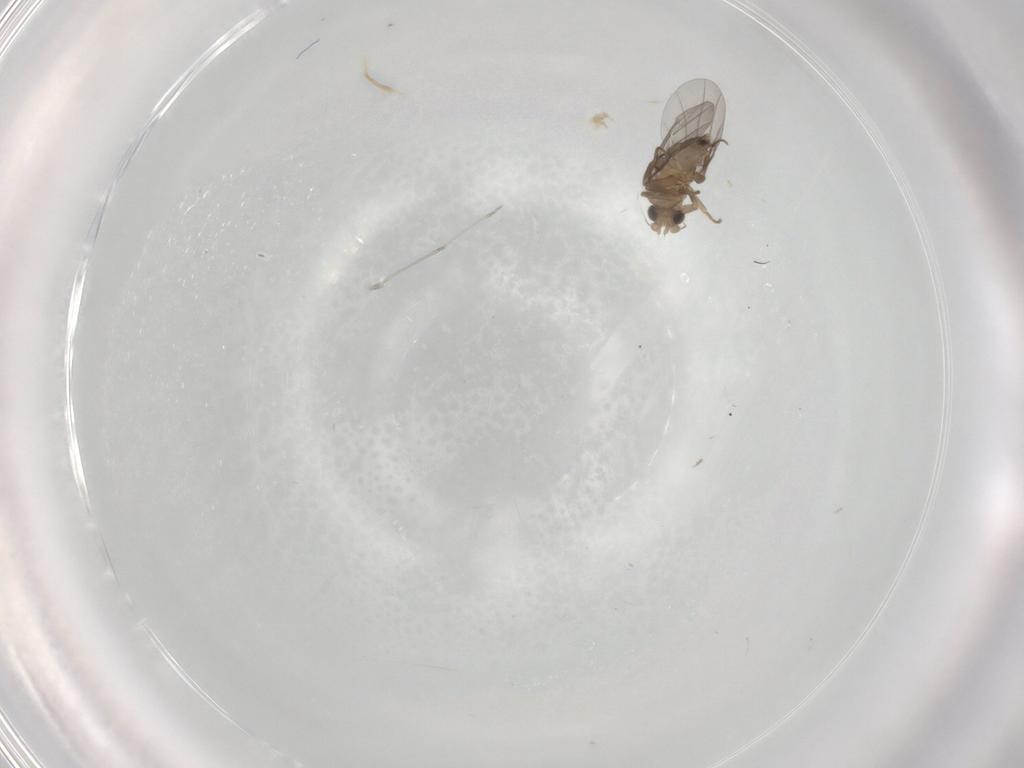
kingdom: Animalia
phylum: Arthropoda
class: Insecta
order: Diptera
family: Cecidomyiidae
